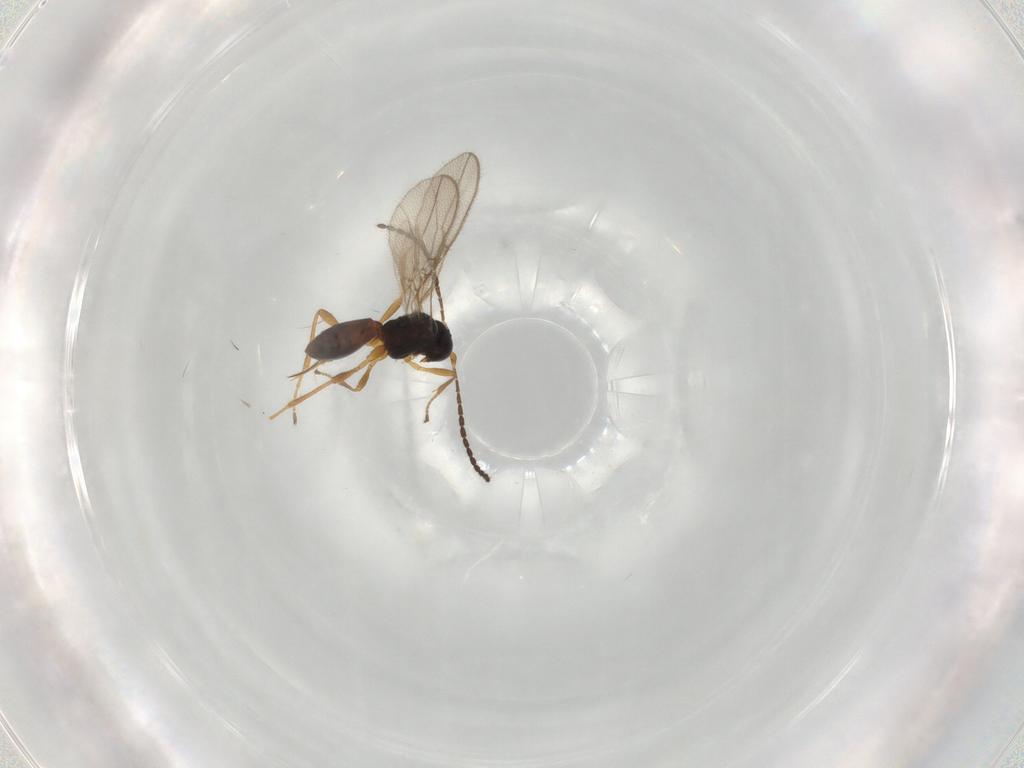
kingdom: Animalia
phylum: Arthropoda
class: Insecta
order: Hymenoptera
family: Braconidae
